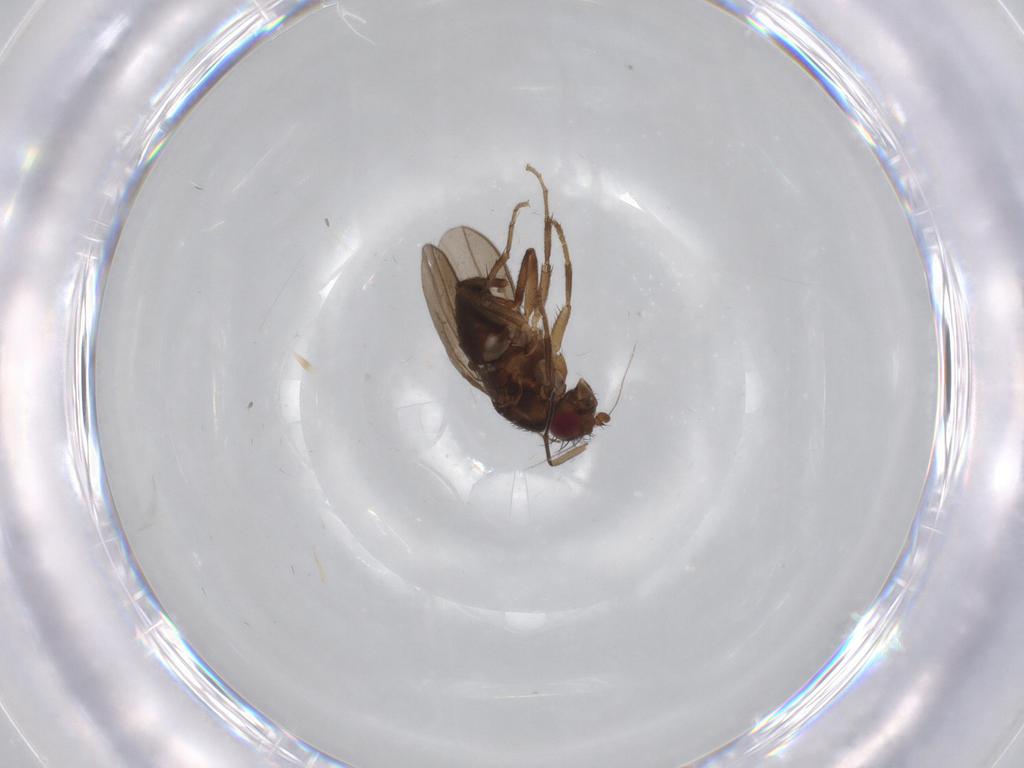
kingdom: Animalia
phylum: Arthropoda
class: Insecta
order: Diptera
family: Sphaeroceridae
